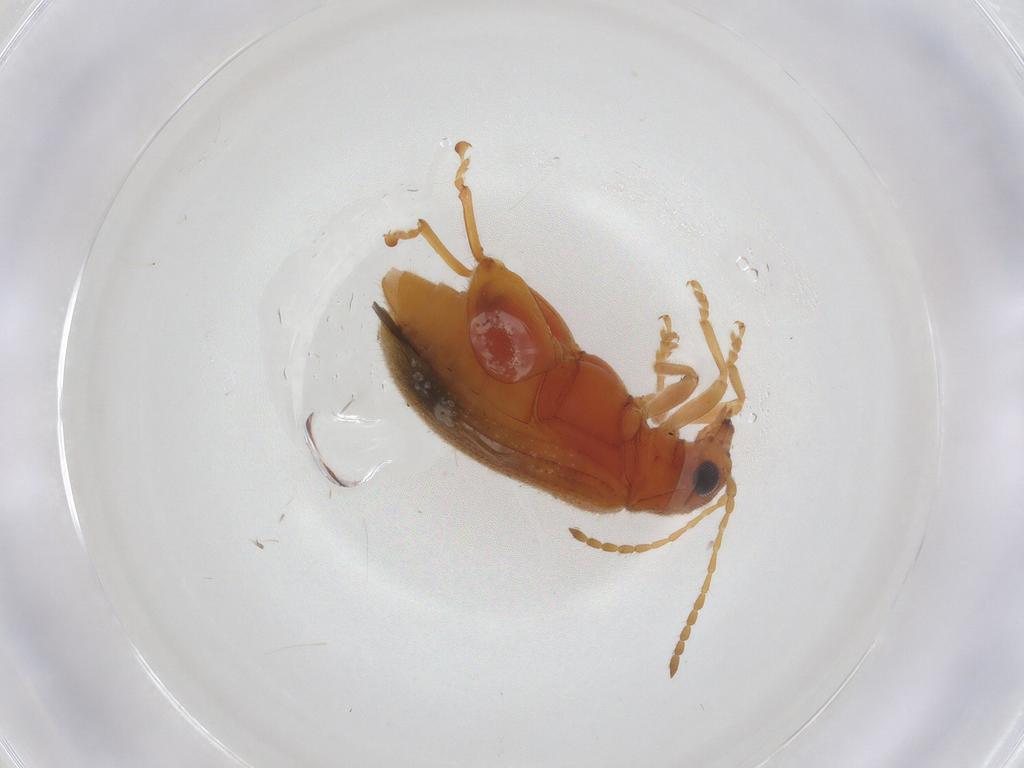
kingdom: Animalia
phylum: Arthropoda
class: Insecta
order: Coleoptera
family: Chrysomelidae
